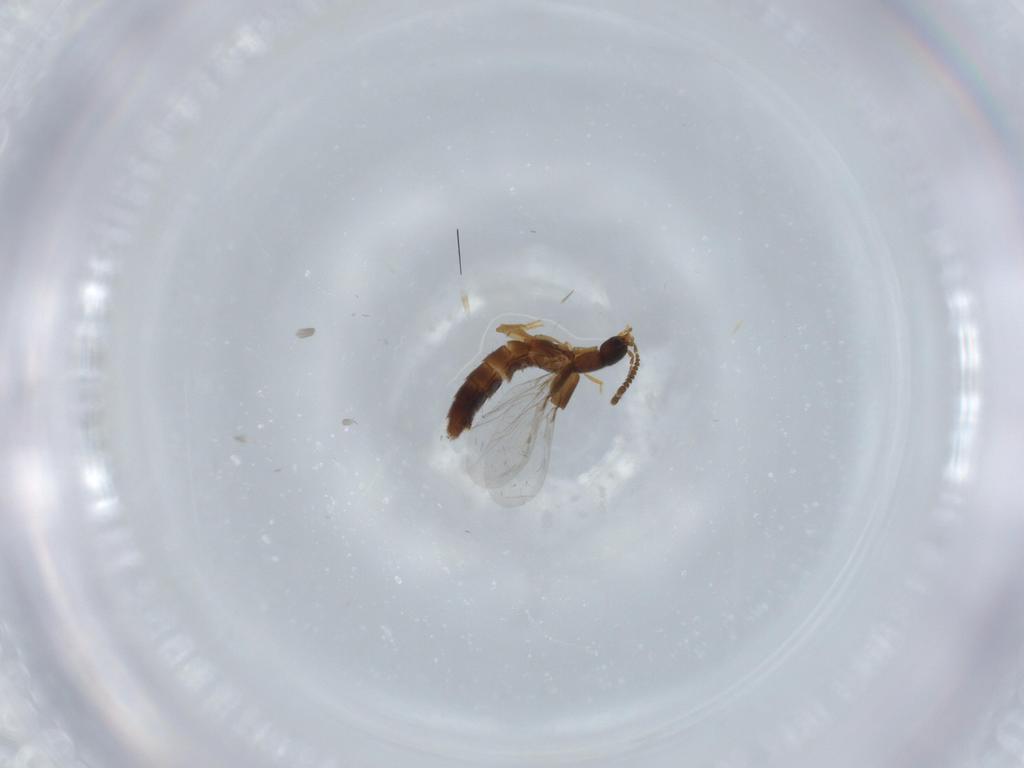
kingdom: Animalia
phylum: Arthropoda
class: Insecta
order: Coleoptera
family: Staphylinidae
